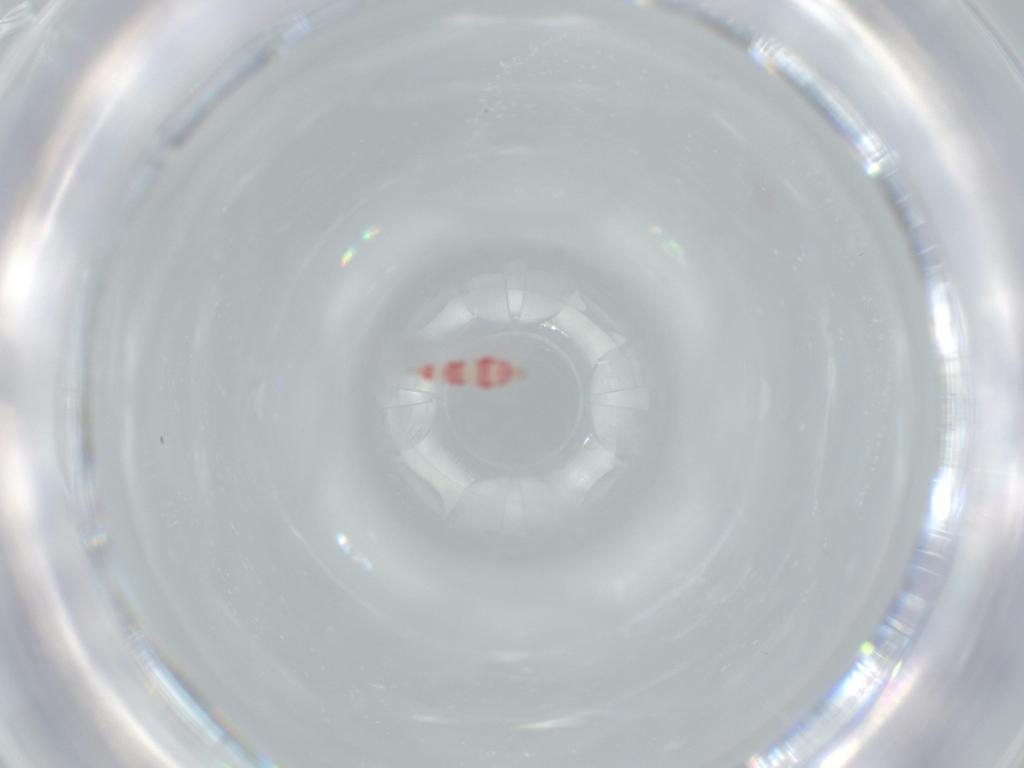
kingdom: Animalia
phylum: Arthropoda
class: Insecta
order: Thysanoptera
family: Phlaeothripidae
